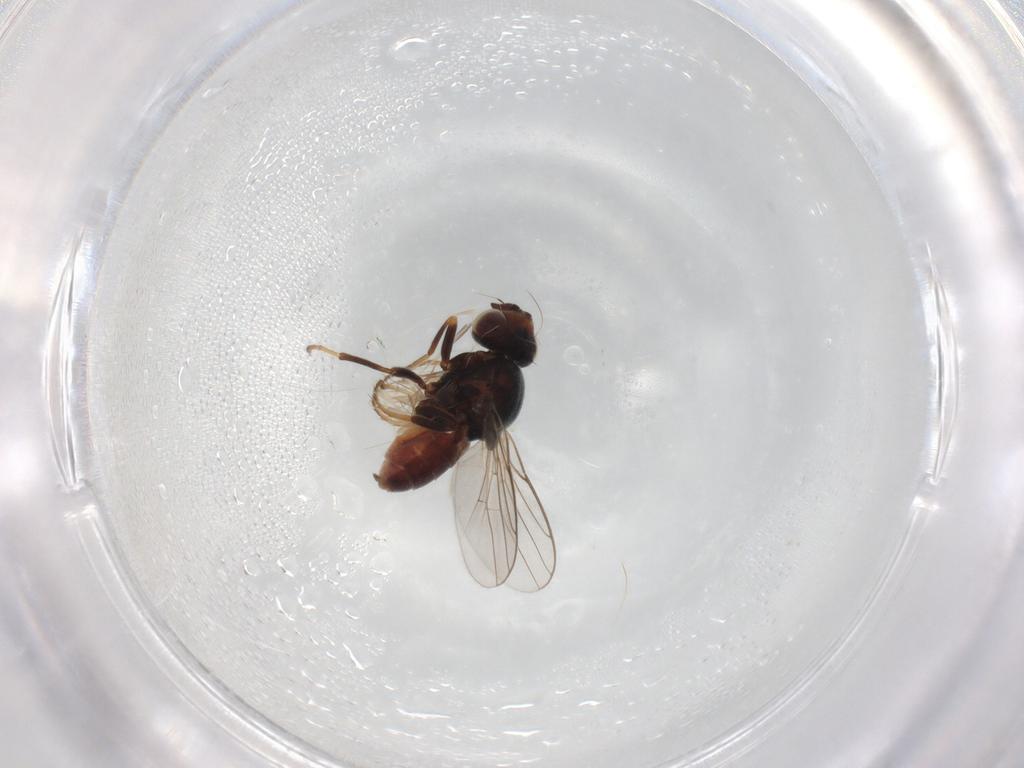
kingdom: Animalia
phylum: Arthropoda
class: Insecta
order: Diptera
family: Chloropidae
